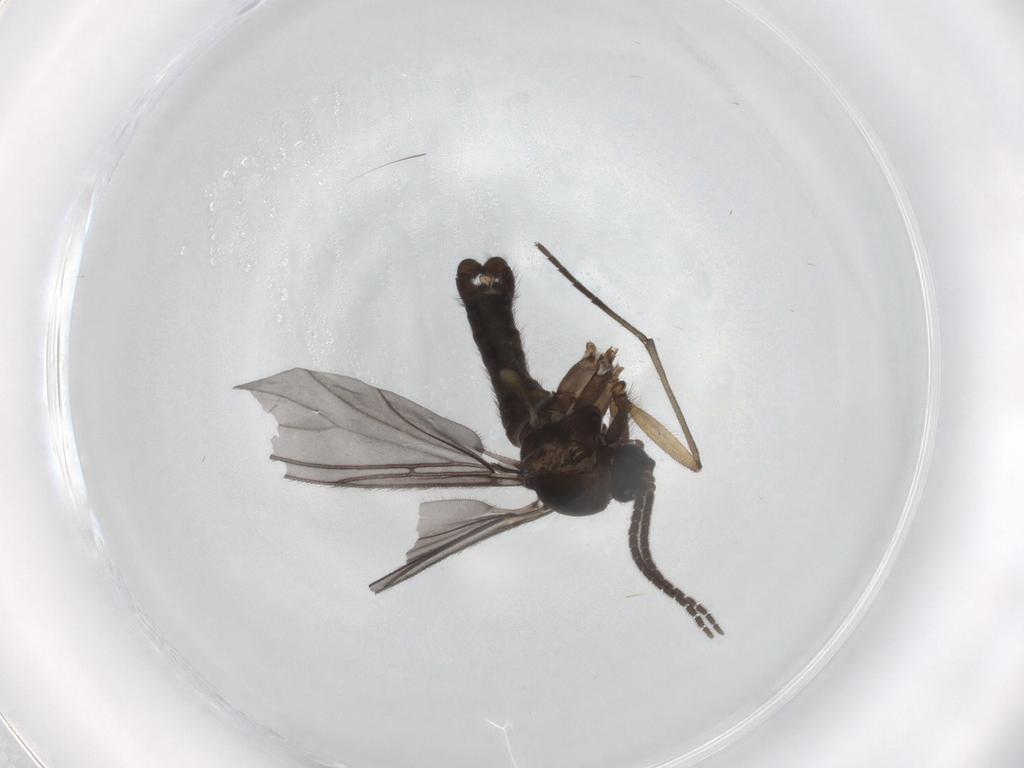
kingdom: Animalia
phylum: Arthropoda
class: Insecta
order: Diptera
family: Sciaridae
